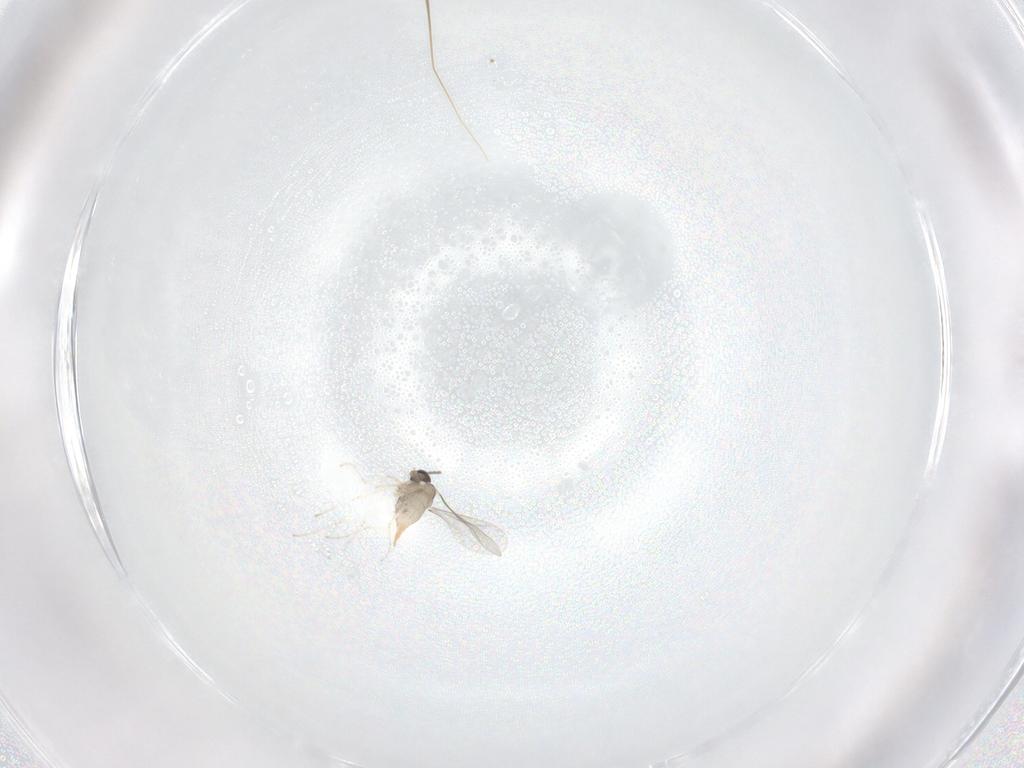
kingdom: Animalia
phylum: Arthropoda
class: Insecta
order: Diptera
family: Cecidomyiidae
